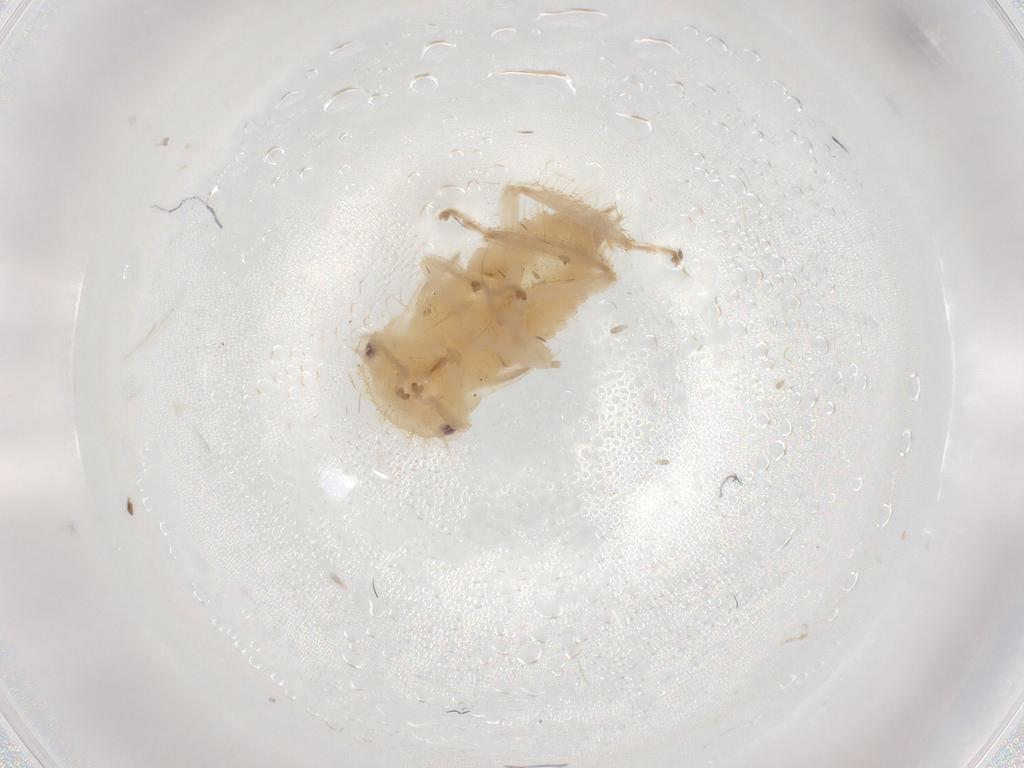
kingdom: Animalia
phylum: Arthropoda
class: Insecta
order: Hemiptera
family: Cicadellidae
